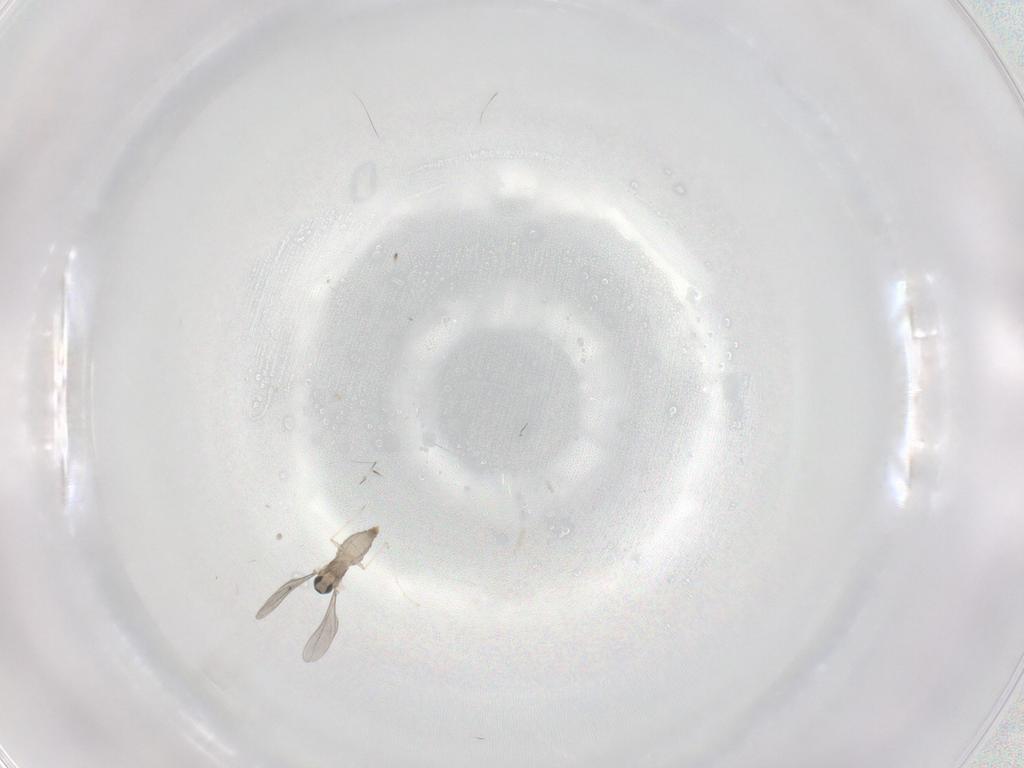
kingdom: Animalia
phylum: Arthropoda
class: Insecta
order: Diptera
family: Cecidomyiidae
